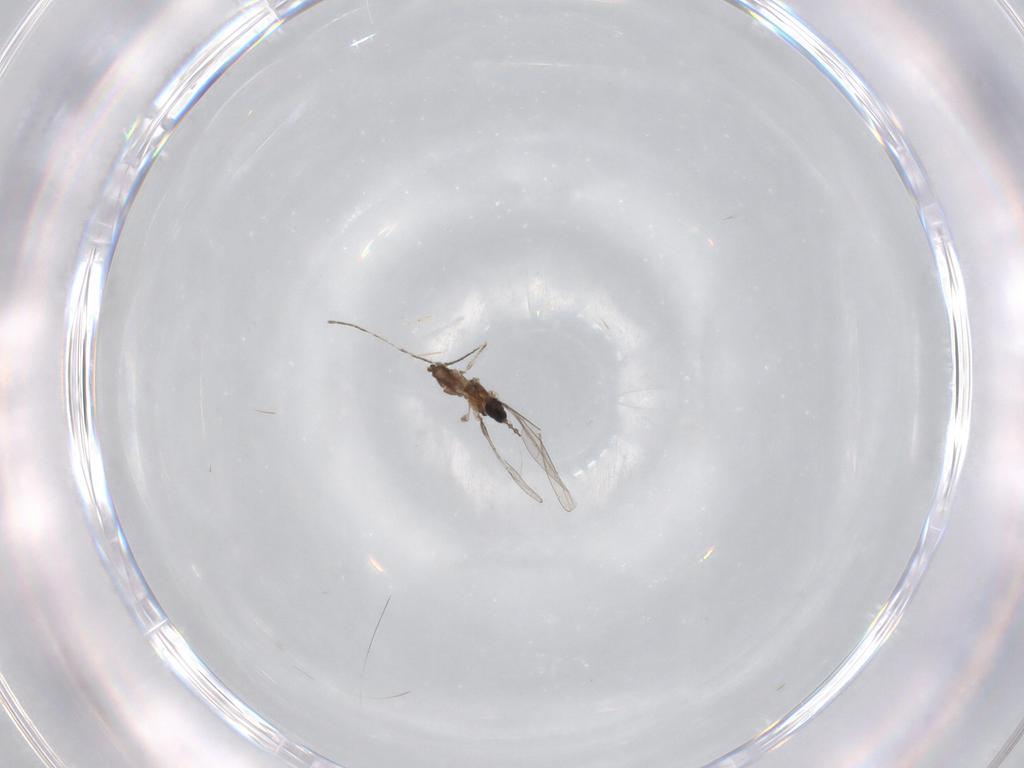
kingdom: Animalia
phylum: Arthropoda
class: Insecta
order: Diptera
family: Cecidomyiidae
